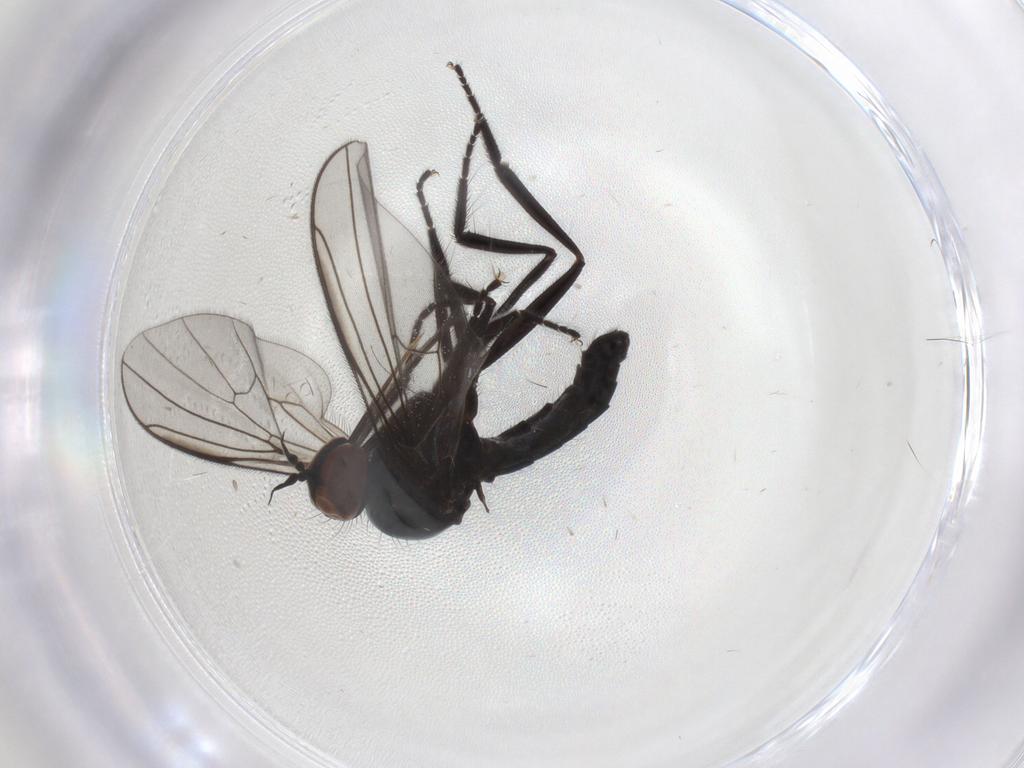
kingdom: Animalia
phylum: Arthropoda
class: Insecta
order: Diptera
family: Empididae
